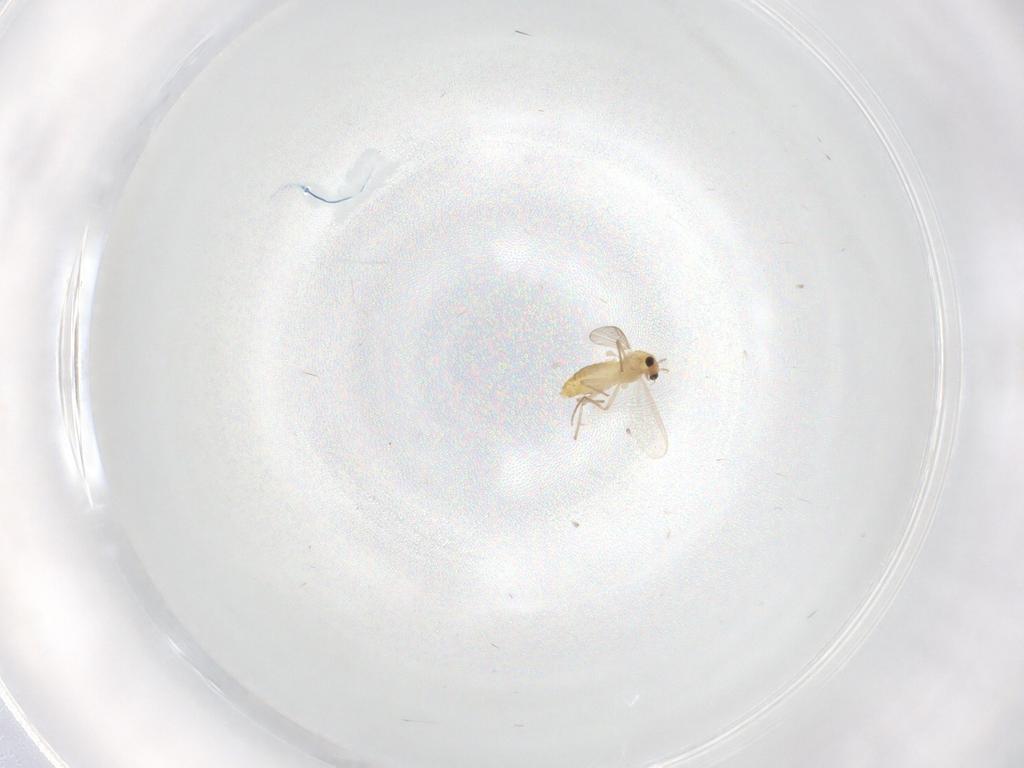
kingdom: Animalia
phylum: Arthropoda
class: Insecta
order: Diptera
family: Chironomidae
